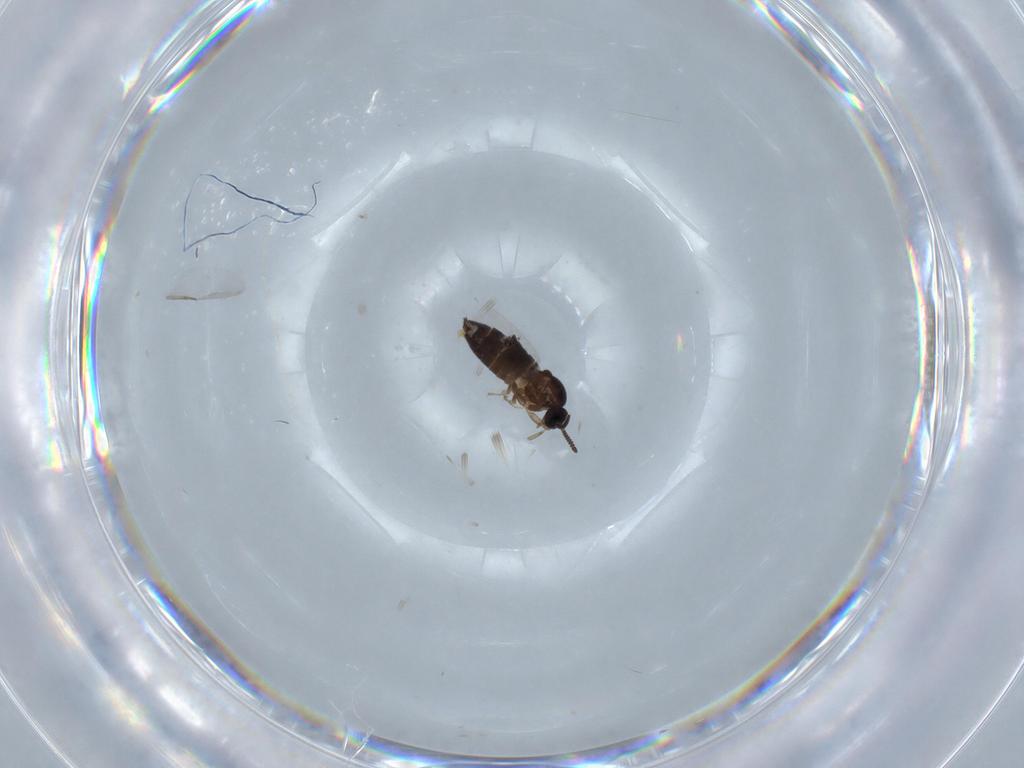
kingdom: Animalia
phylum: Arthropoda
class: Insecta
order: Diptera
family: Scatopsidae
